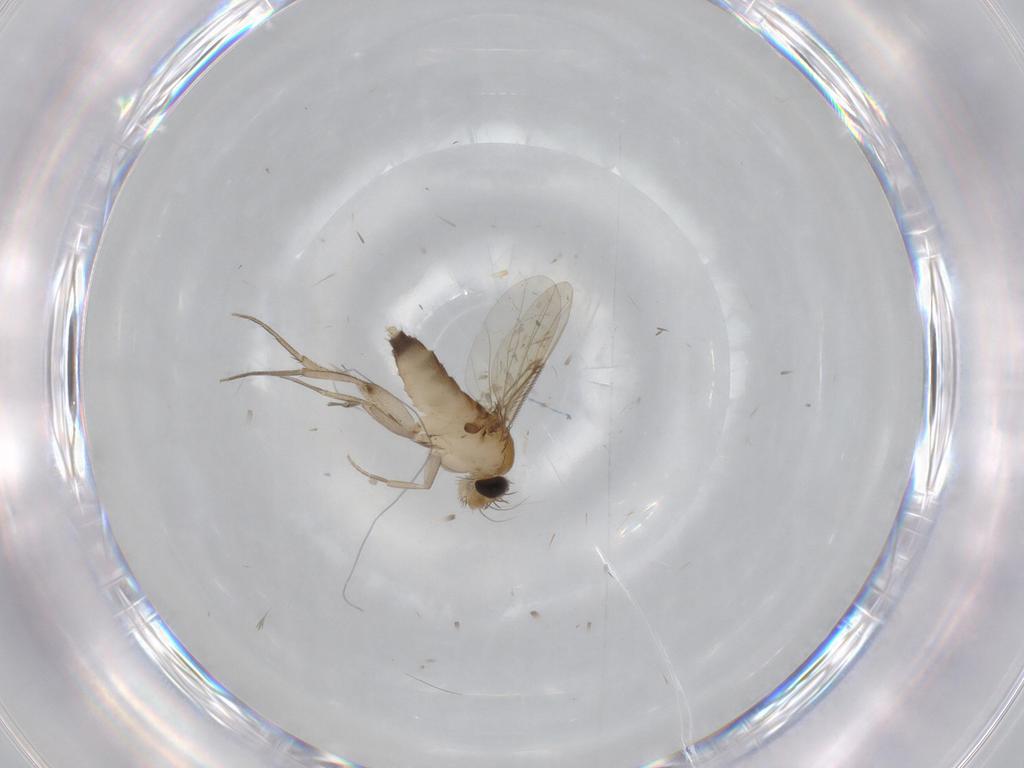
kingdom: Animalia
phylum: Arthropoda
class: Insecta
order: Diptera
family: Phoridae
